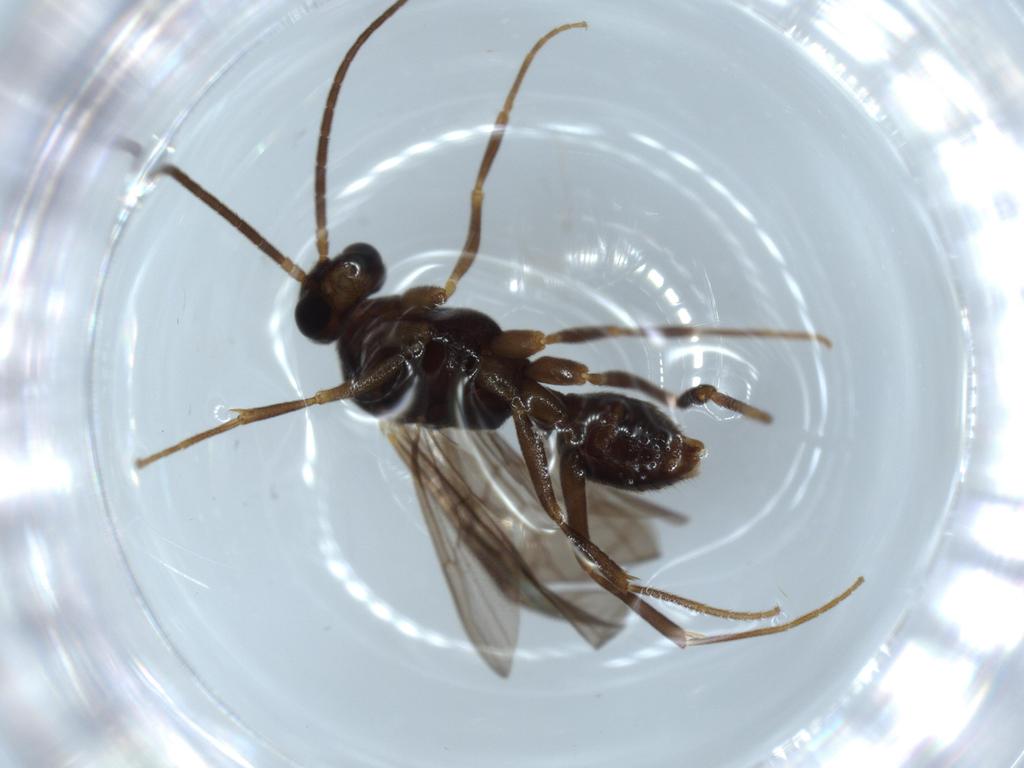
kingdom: Animalia
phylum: Arthropoda
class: Insecta
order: Hymenoptera
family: Formicidae
